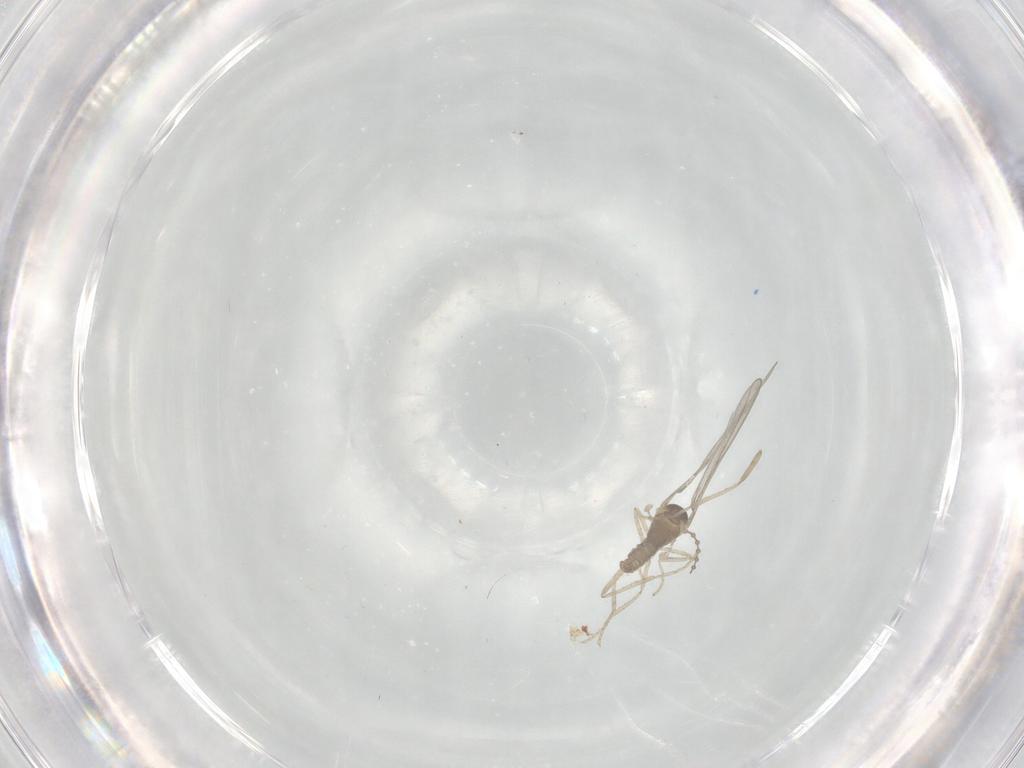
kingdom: Animalia
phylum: Arthropoda
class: Insecta
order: Diptera
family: Cecidomyiidae
